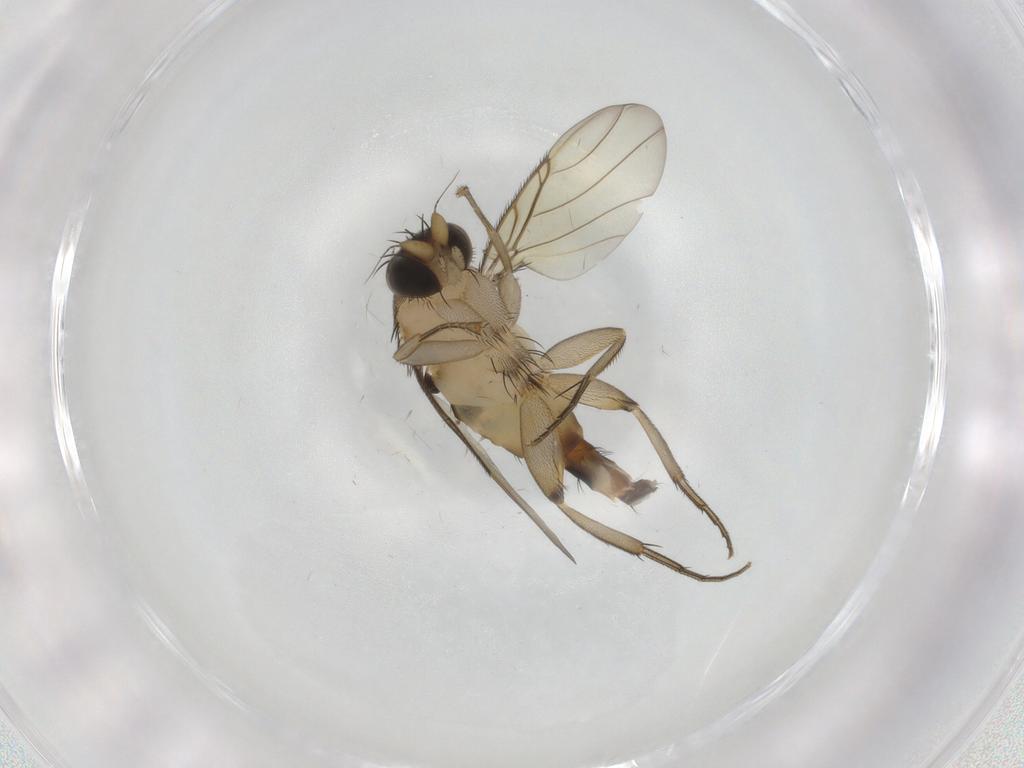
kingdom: Animalia
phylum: Arthropoda
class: Insecta
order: Diptera
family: Phoridae
